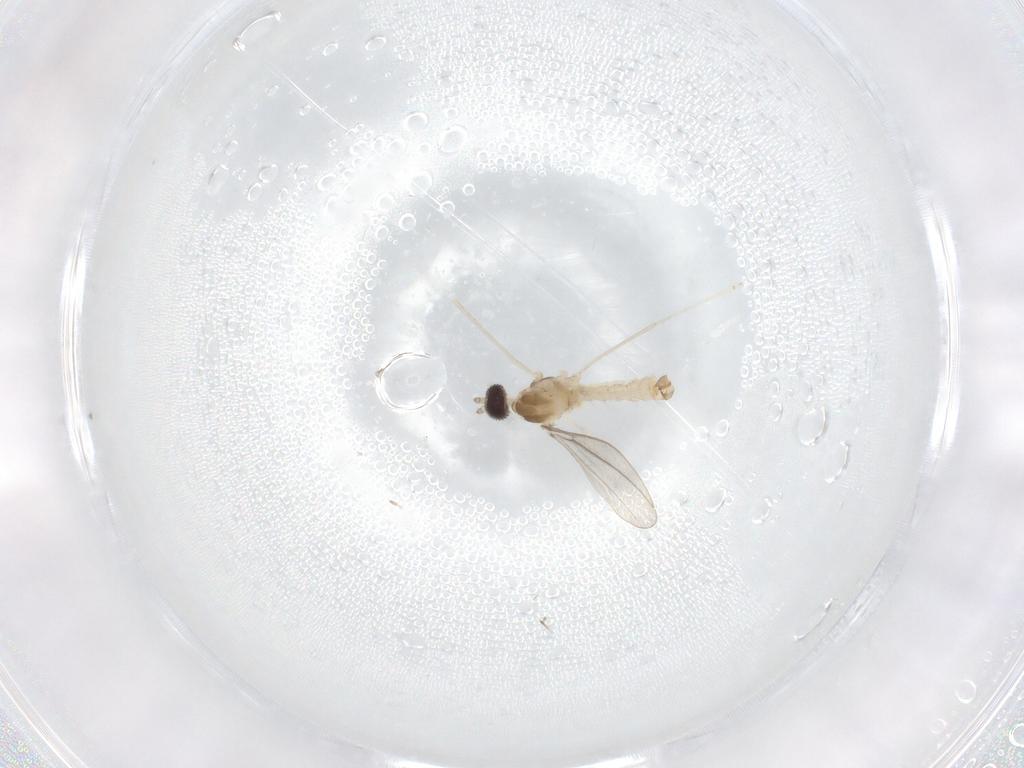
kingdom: Animalia
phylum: Arthropoda
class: Insecta
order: Diptera
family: Cecidomyiidae
